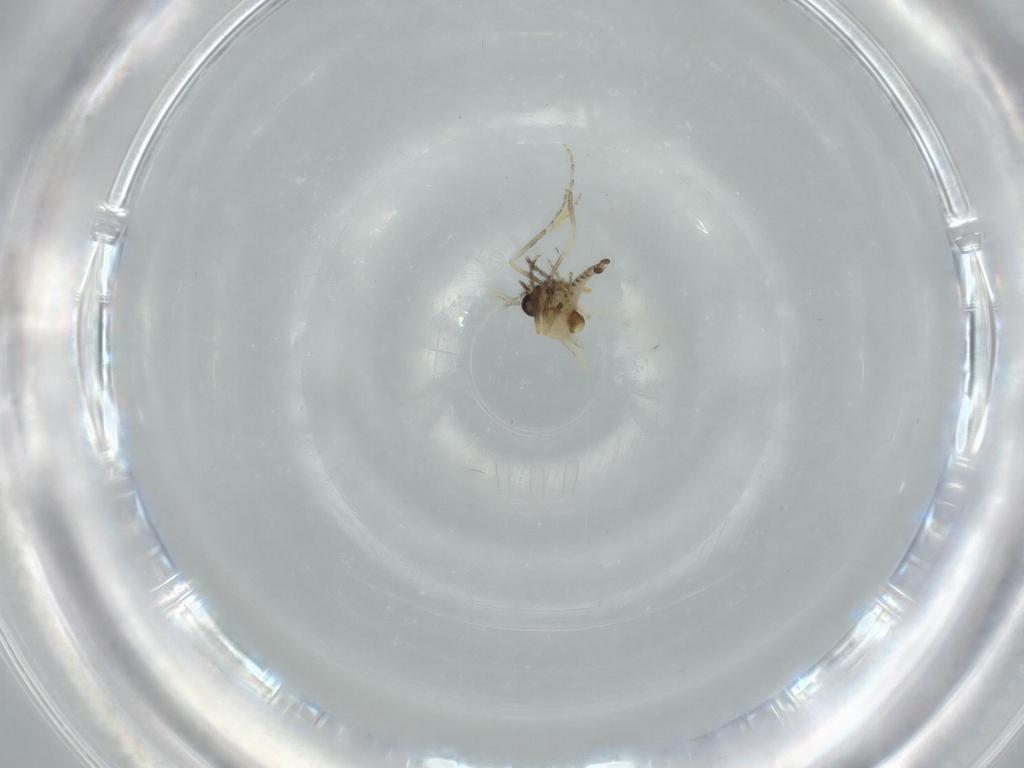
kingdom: Animalia
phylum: Arthropoda
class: Insecta
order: Diptera
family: Ceratopogonidae
